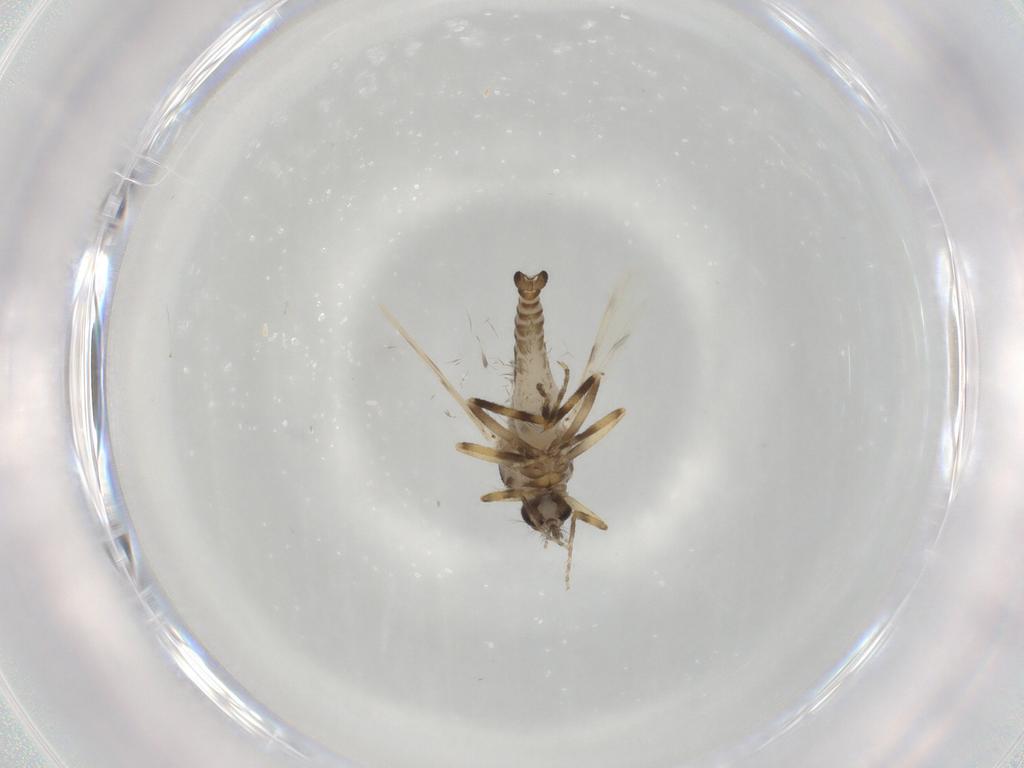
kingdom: Animalia
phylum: Arthropoda
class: Insecta
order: Diptera
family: Ceratopogonidae
